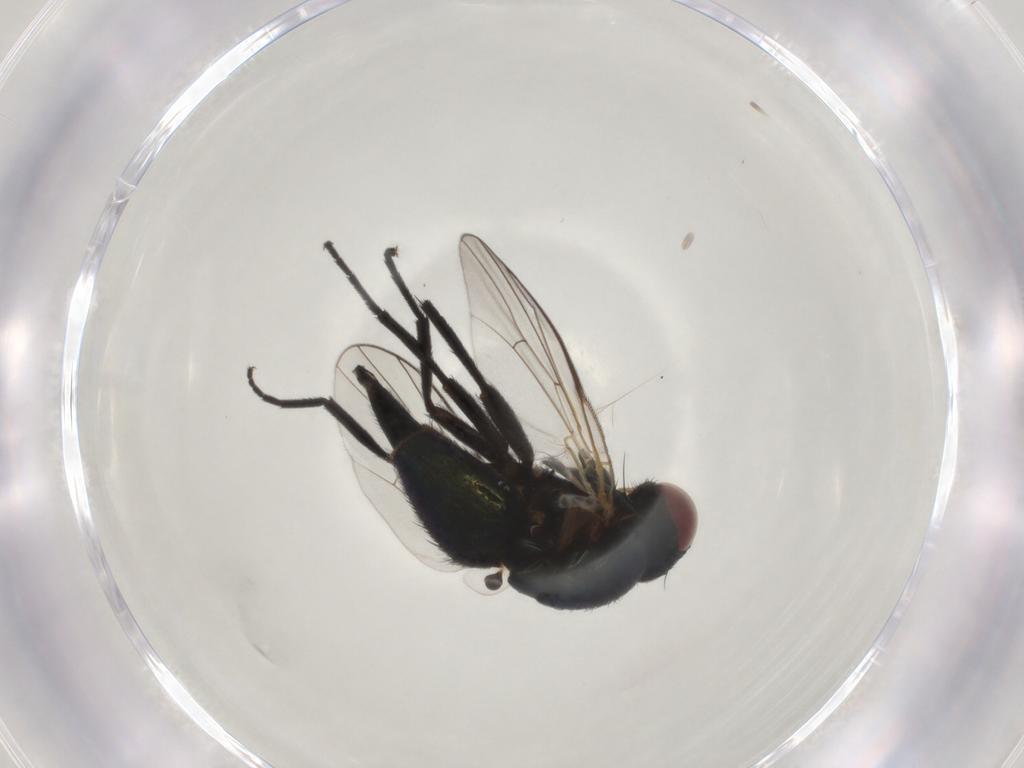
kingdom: Animalia
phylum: Arthropoda
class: Insecta
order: Diptera
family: Agromyzidae
